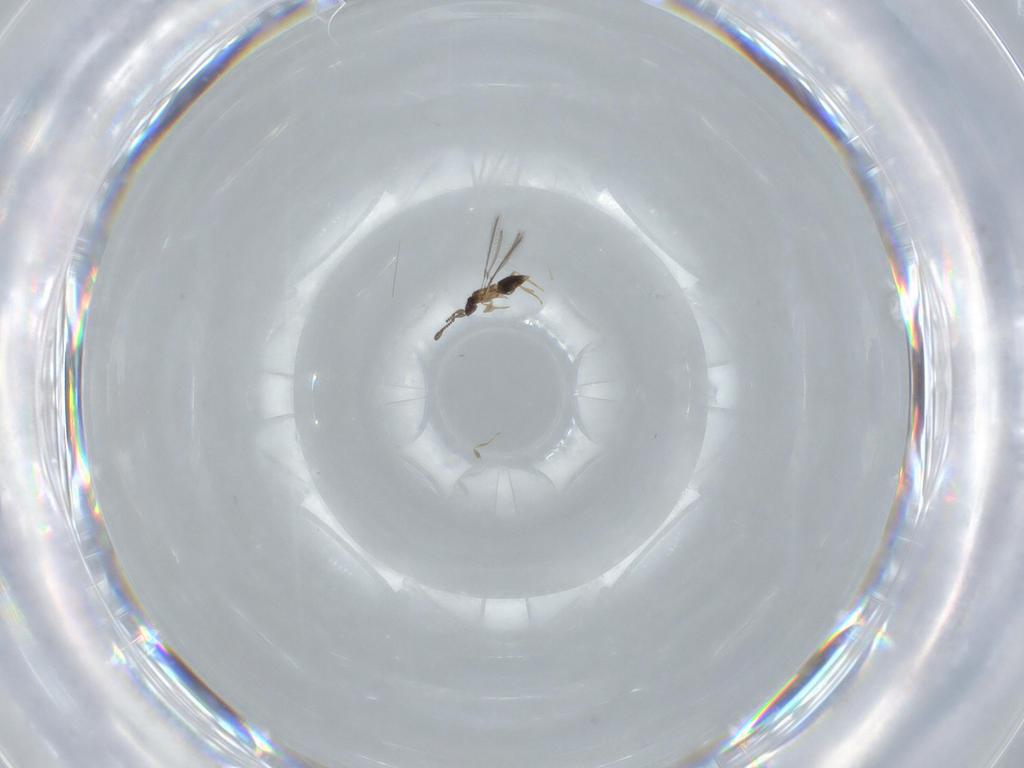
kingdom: Animalia
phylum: Arthropoda
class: Insecta
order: Hymenoptera
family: Mymaridae
